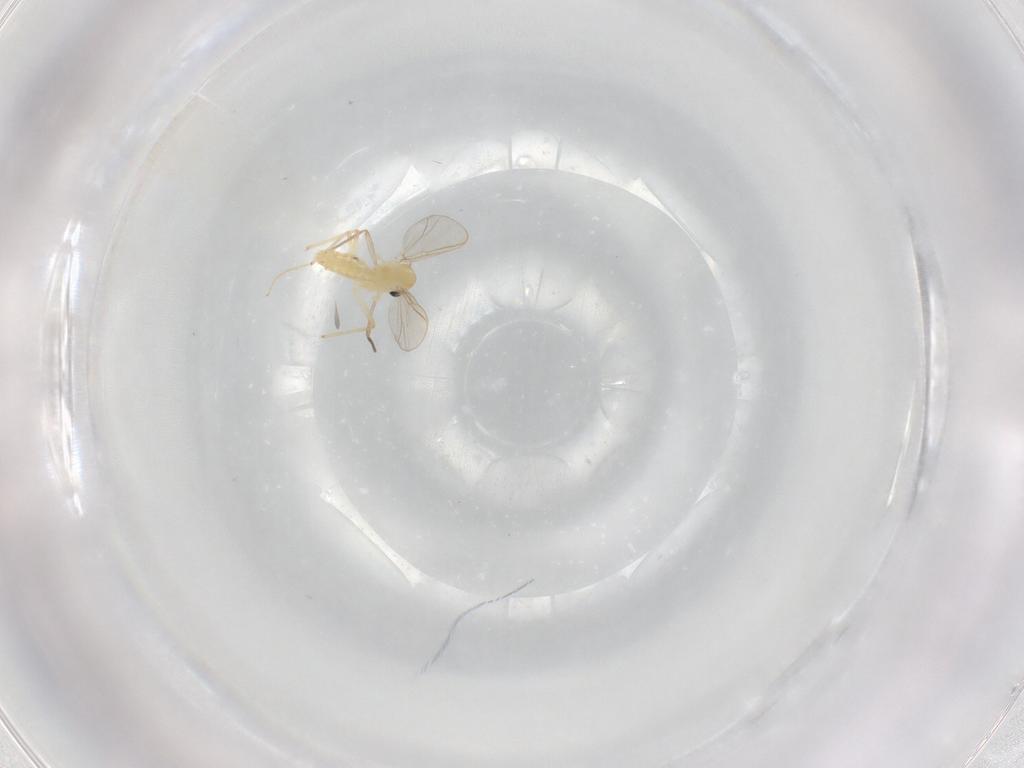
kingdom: Animalia
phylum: Arthropoda
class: Insecta
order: Diptera
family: Chironomidae
